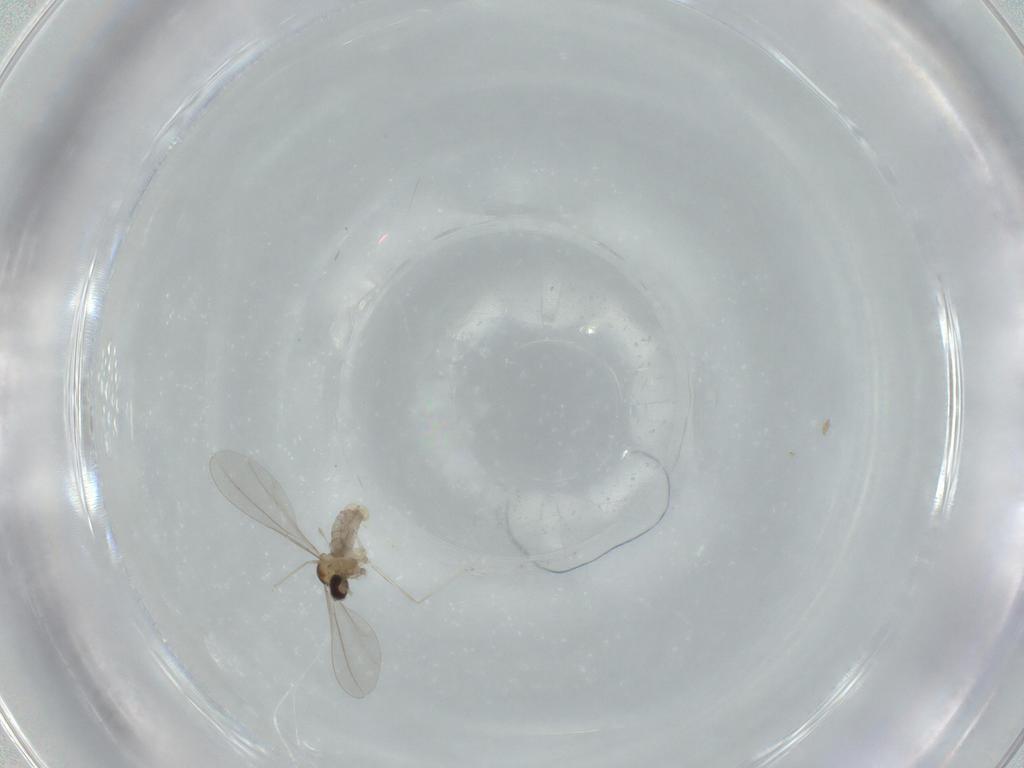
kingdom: Animalia
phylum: Arthropoda
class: Insecta
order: Diptera
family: Cecidomyiidae
